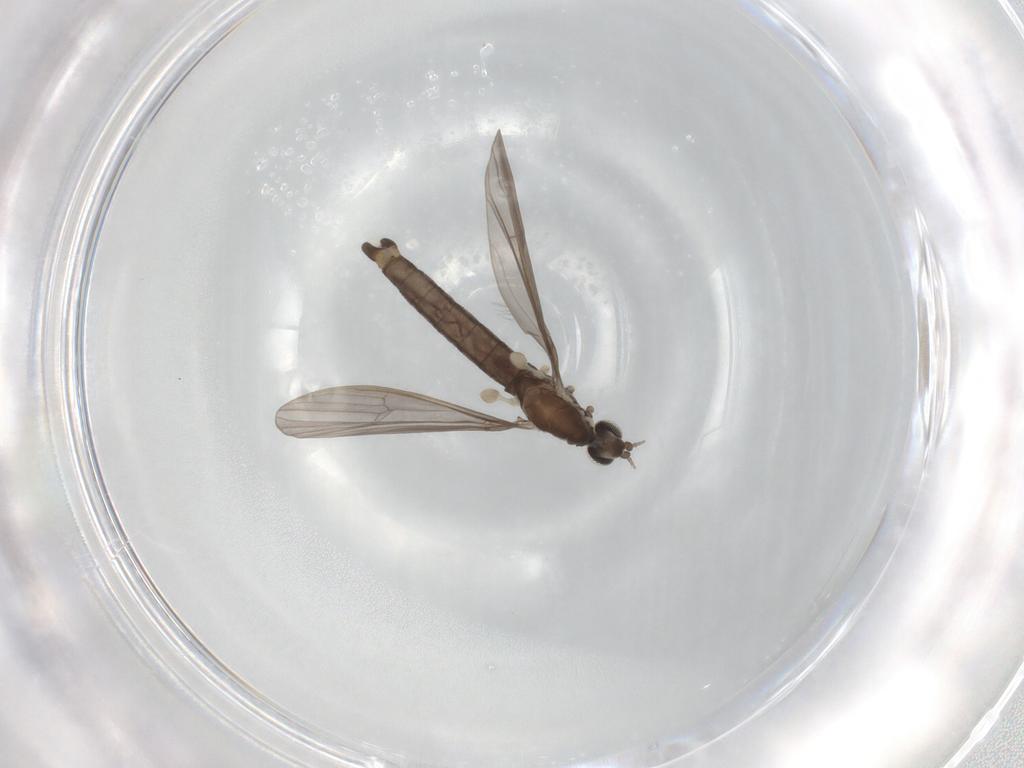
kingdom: Animalia
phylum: Arthropoda
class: Insecta
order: Diptera
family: Limoniidae
